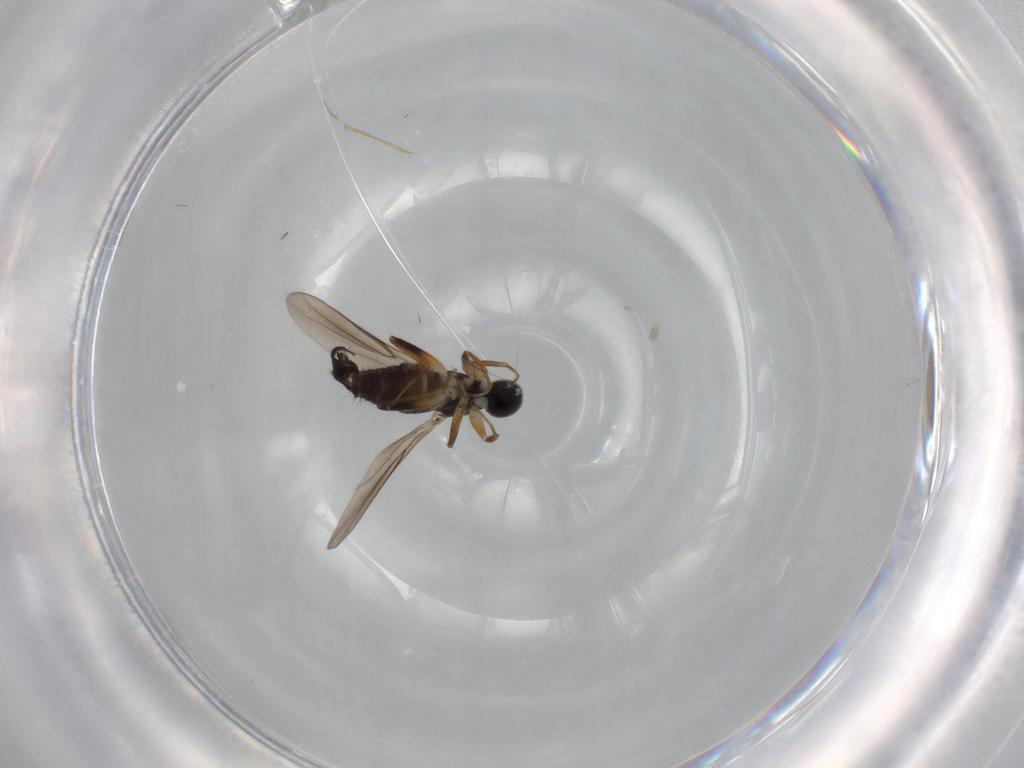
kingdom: Animalia
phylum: Arthropoda
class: Insecta
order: Diptera
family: Hybotidae
